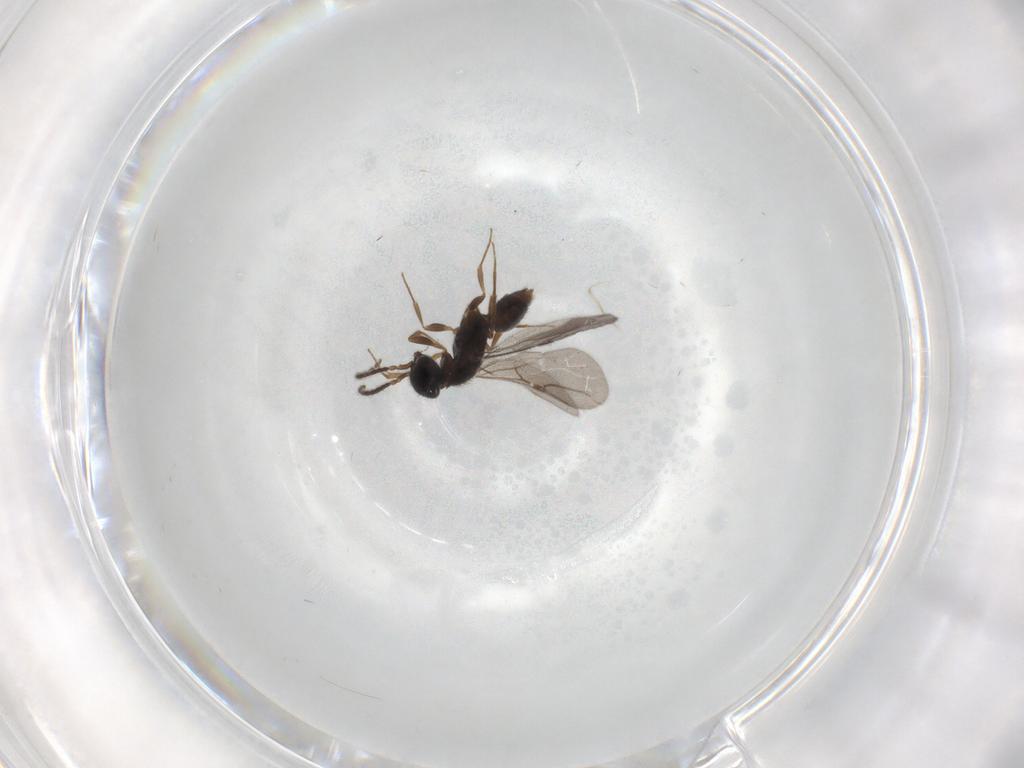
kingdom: Animalia
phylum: Arthropoda
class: Insecta
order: Hymenoptera
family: Bethylidae
